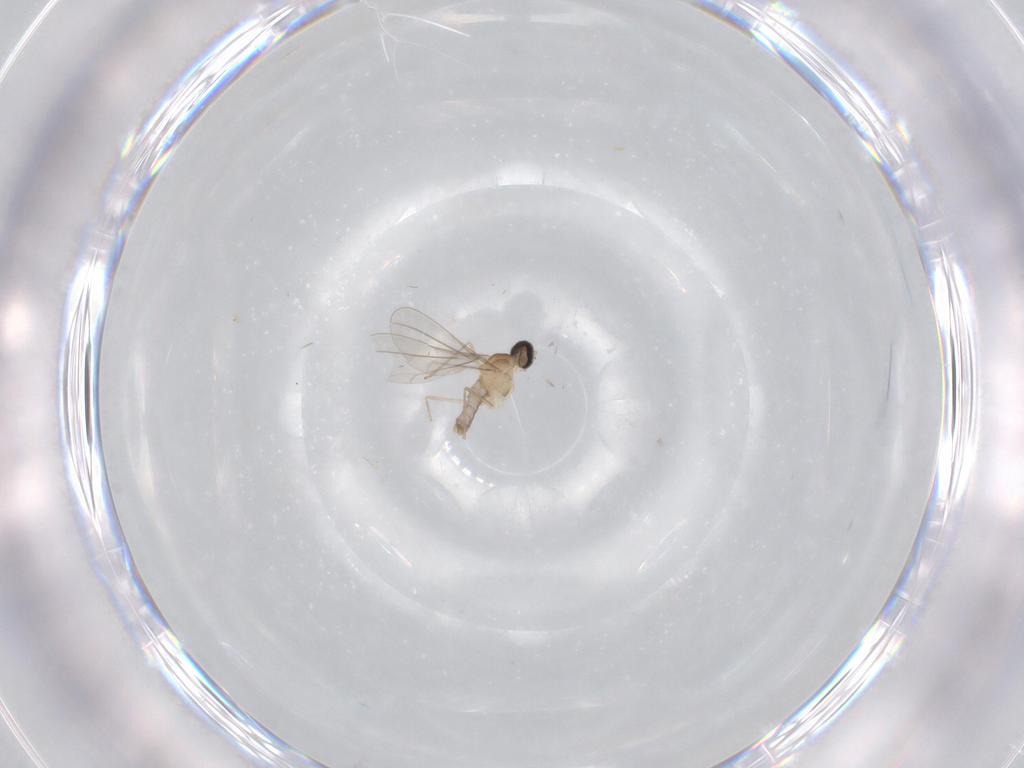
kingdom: Animalia
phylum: Arthropoda
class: Insecta
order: Diptera
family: Cecidomyiidae
